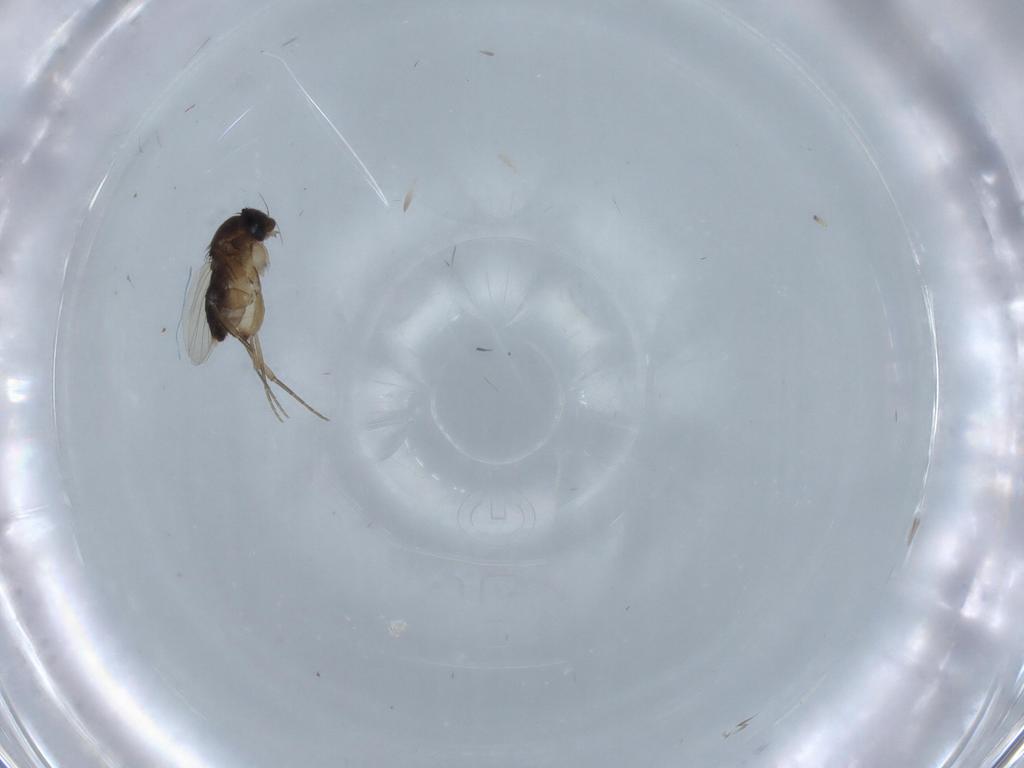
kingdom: Animalia
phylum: Arthropoda
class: Insecta
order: Diptera
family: Phoridae
